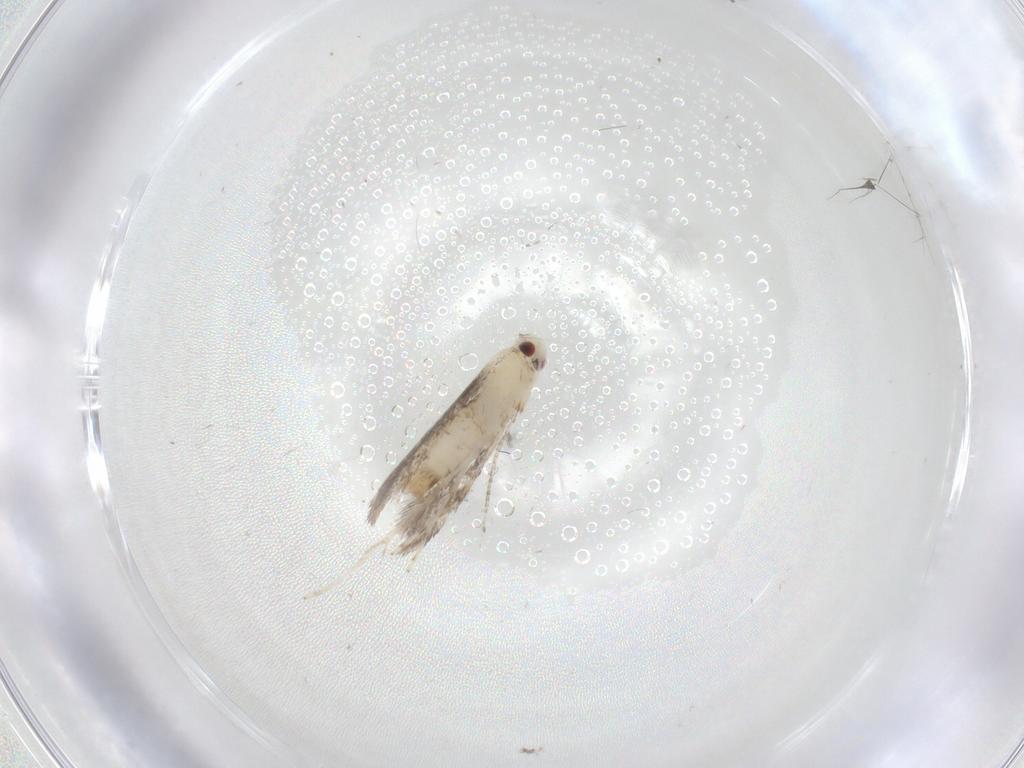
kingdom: Animalia
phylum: Arthropoda
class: Insecta
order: Lepidoptera
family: Gracillariidae
